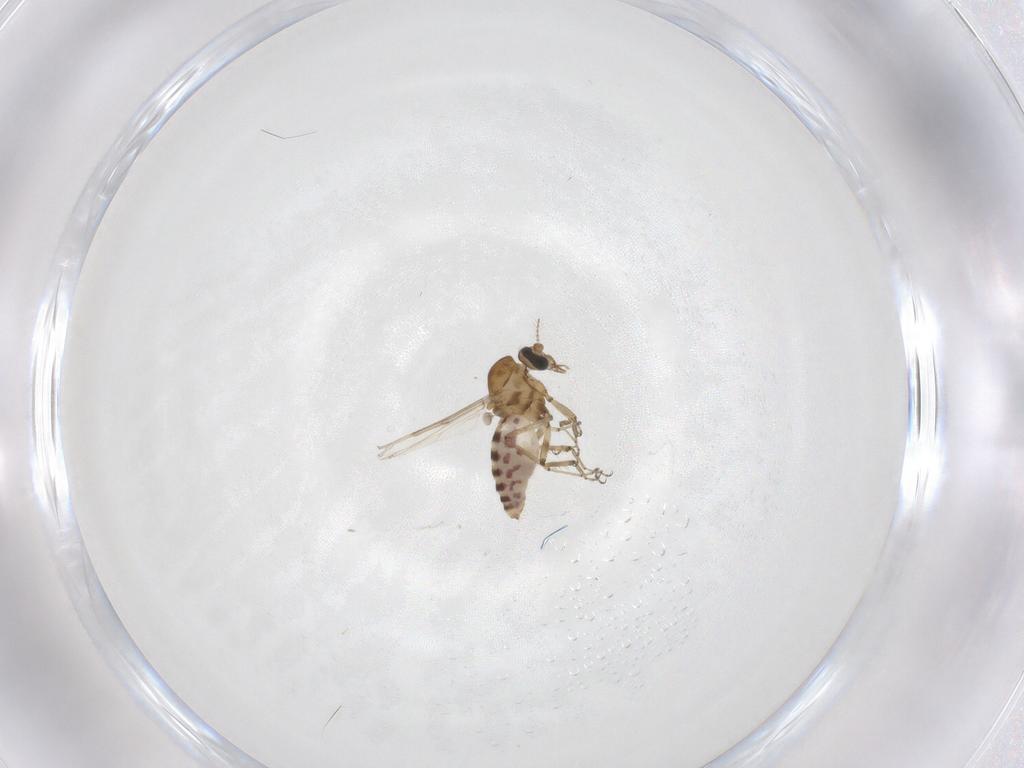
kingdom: Animalia
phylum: Arthropoda
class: Insecta
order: Diptera
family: Ceratopogonidae
